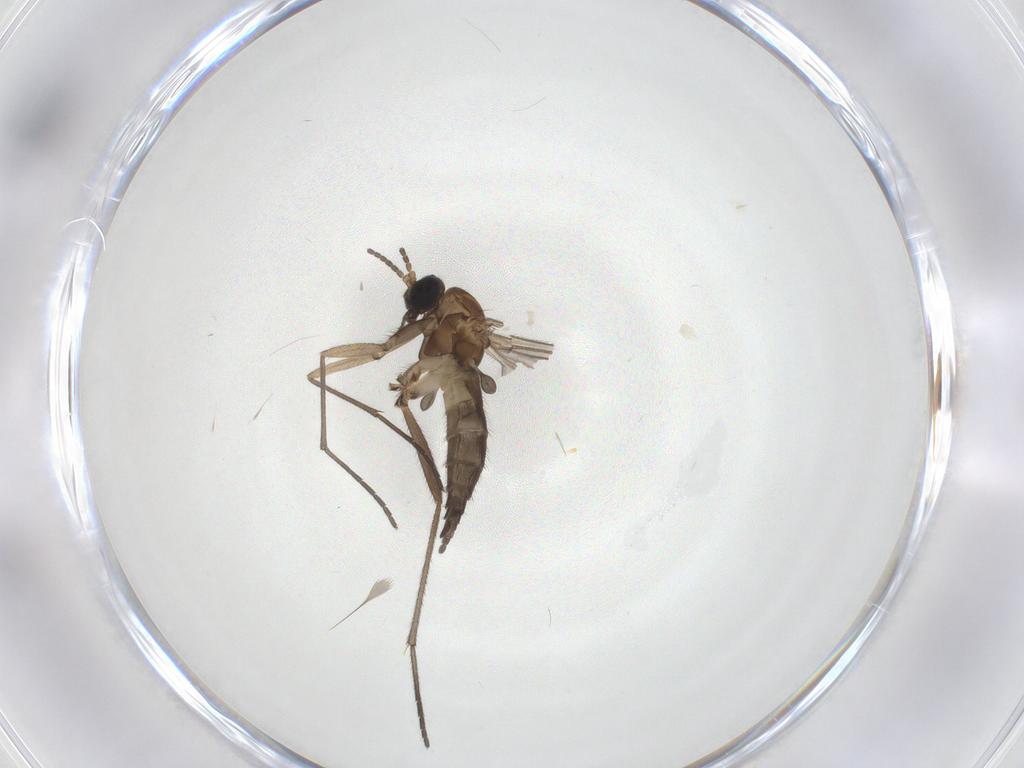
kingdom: Animalia
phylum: Arthropoda
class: Insecta
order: Diptera
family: Sciaridae
